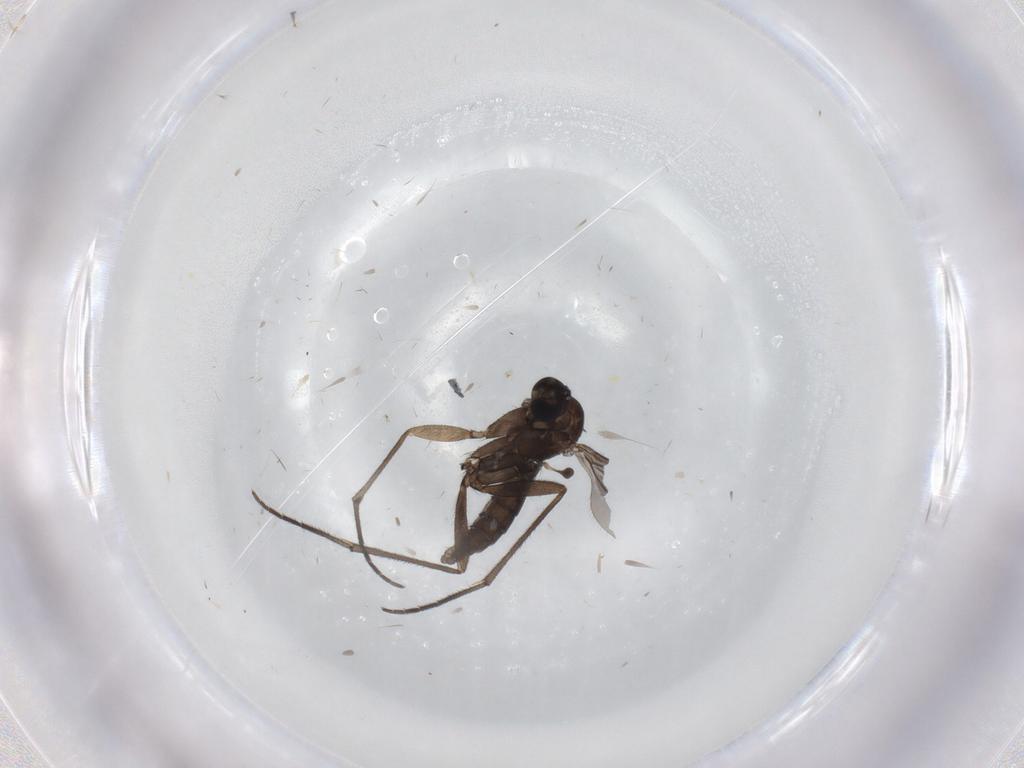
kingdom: Animalia
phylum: Arthropoda
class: Insecta
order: Diptera
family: Sciaridae
